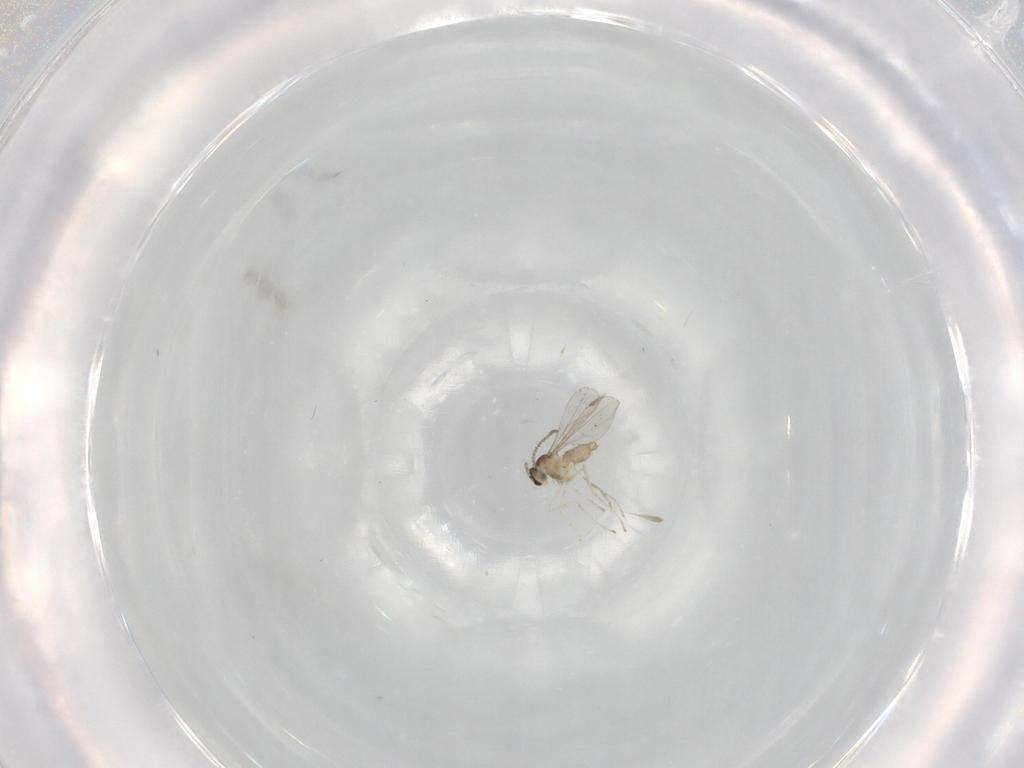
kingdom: Animalia
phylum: Arthropoda
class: Insecta
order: Diptera
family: Cecidomyiidae
